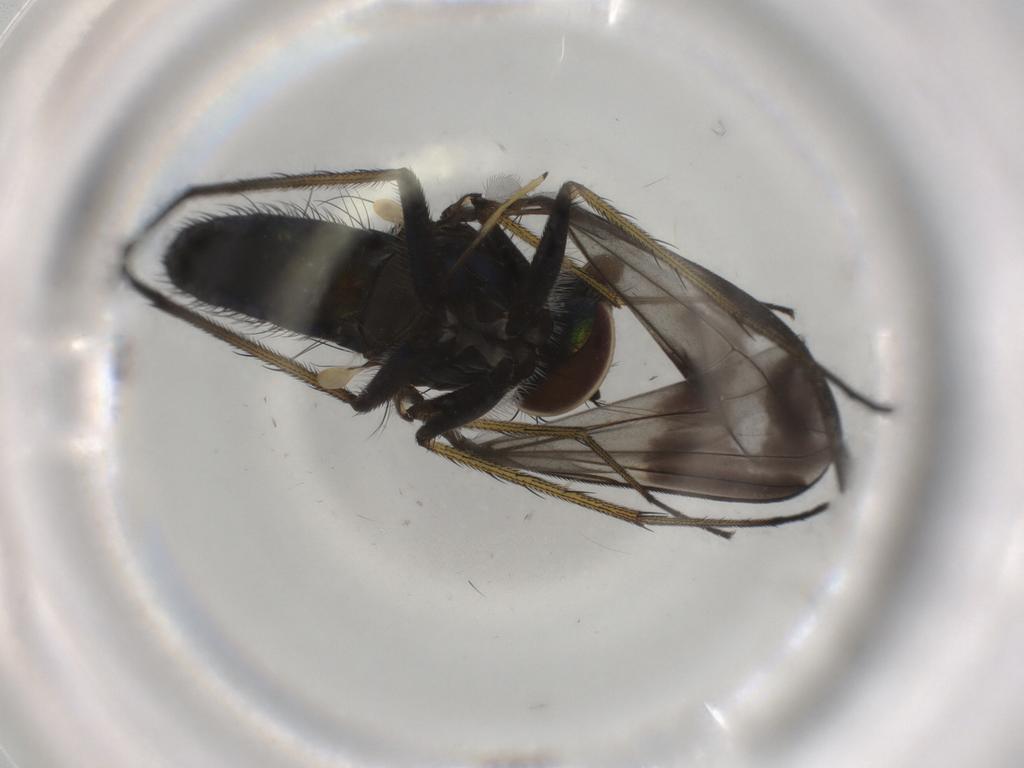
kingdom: Animalia
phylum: Arthropoda
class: Insecta
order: Diptera
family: Dolichopodidae
